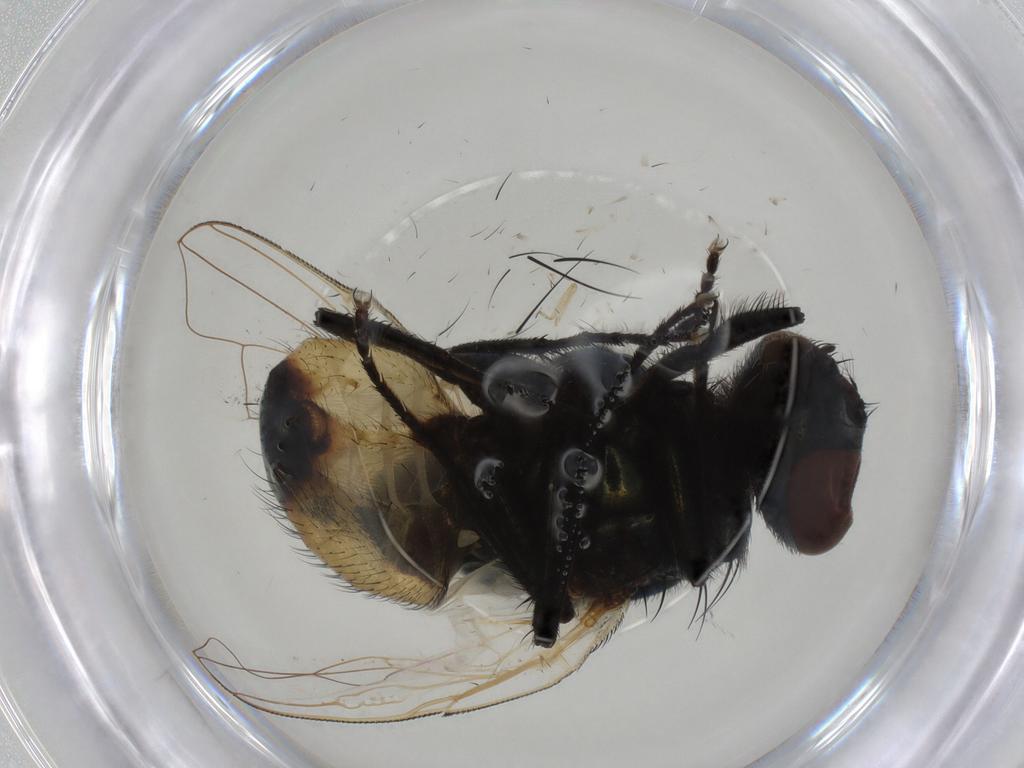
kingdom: Animalia
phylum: Arthropoda
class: Insecta
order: Diptera
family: Muscidae
